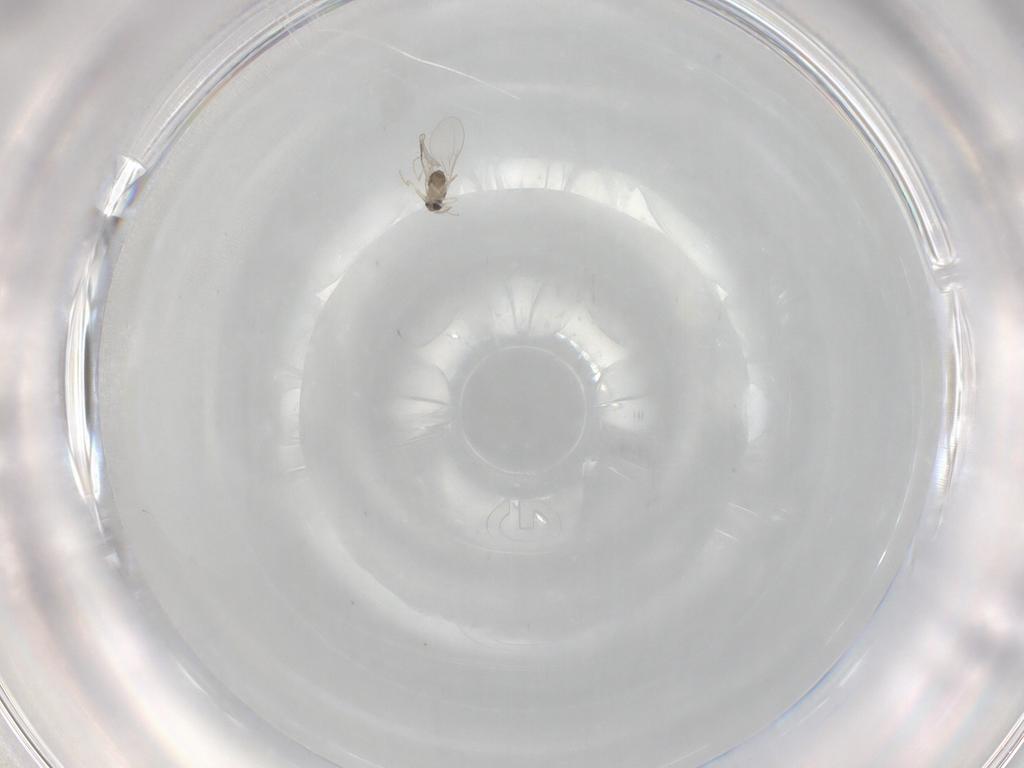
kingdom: Animalia
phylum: Arthropoda
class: Insecta
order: Diptera
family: Cecidomyiidae
